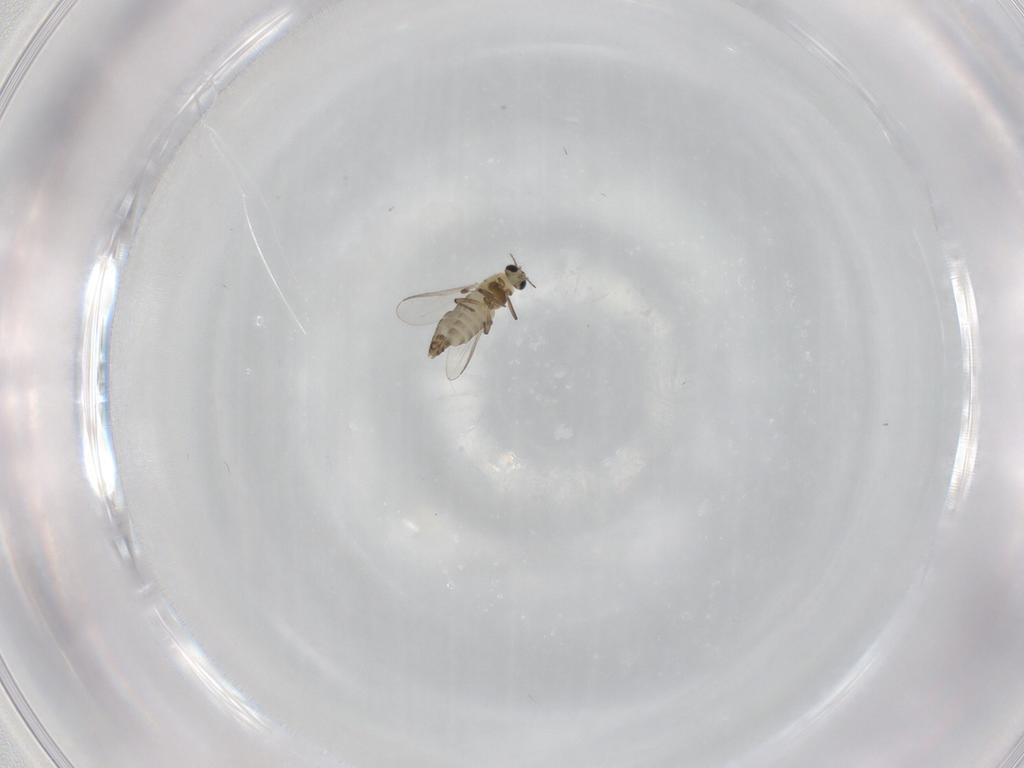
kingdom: Animalia
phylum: Arthropoda
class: Insecta
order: Diptera
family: Chironomidae
